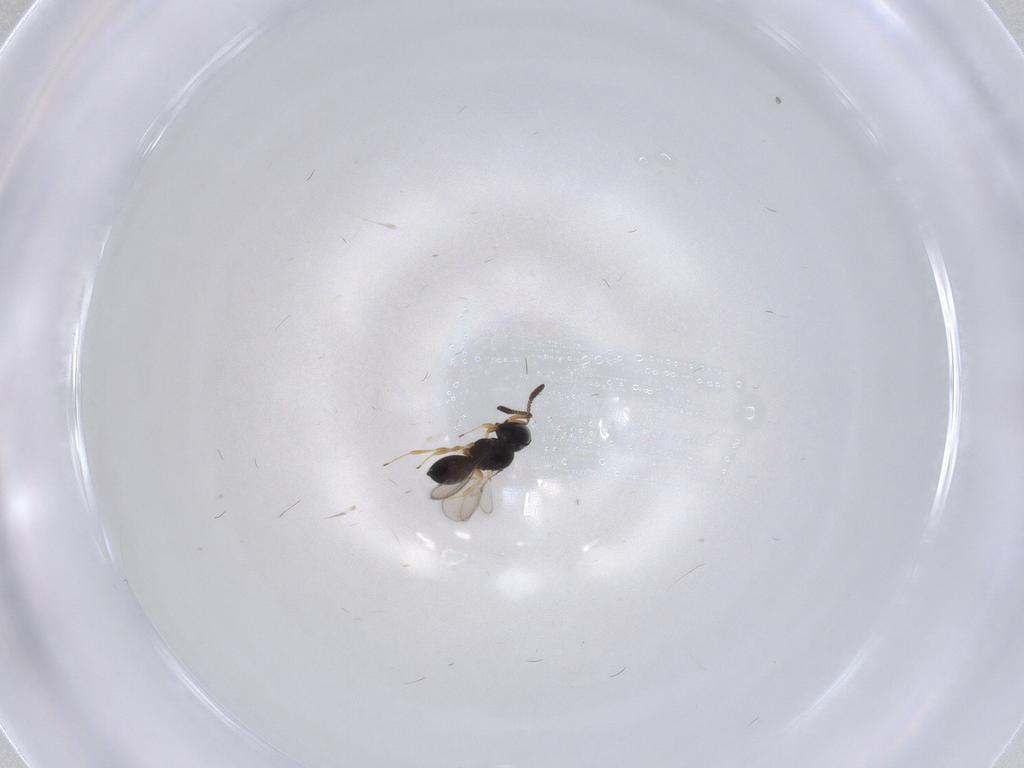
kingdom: Animalia
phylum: Arthropoda
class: Insecta
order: Hymenoptera
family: Scelionidae
